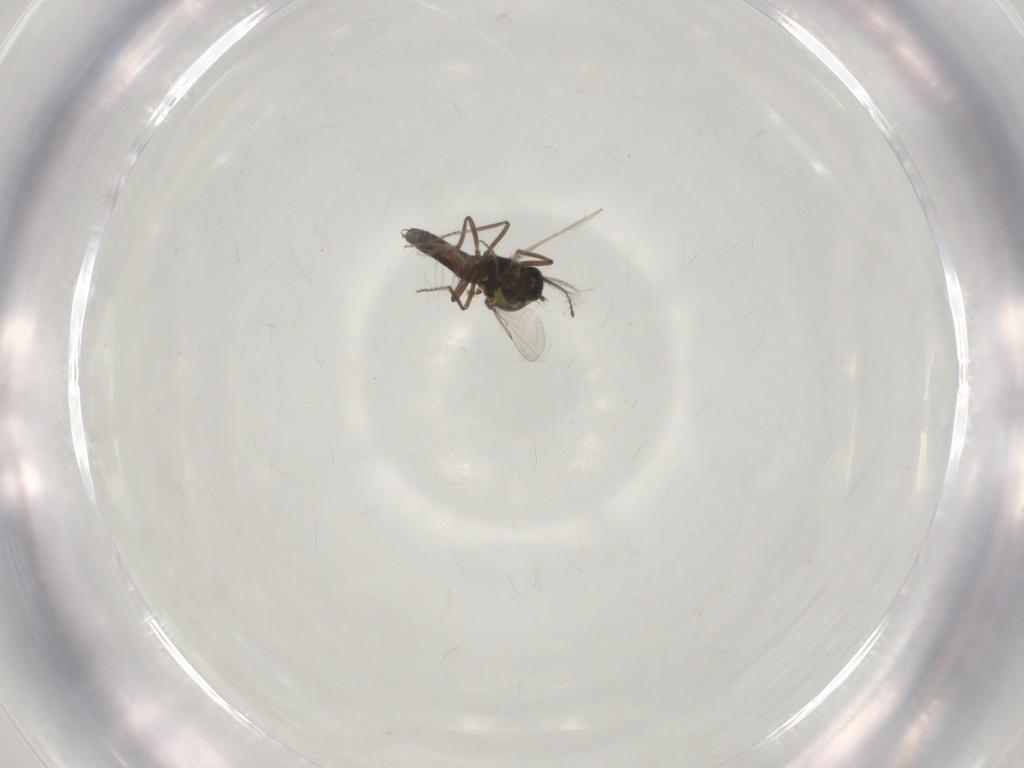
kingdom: Animalia
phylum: Arthropoda
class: Insecta
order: Diptera
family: Ceratopogonidae
